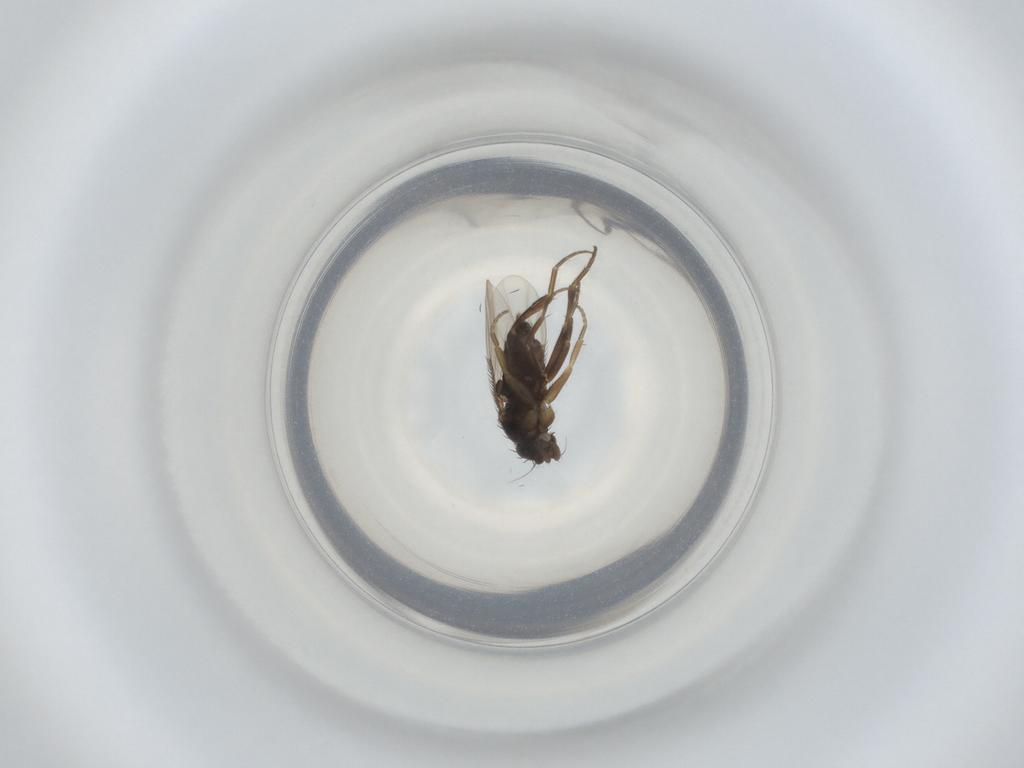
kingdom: Animalia
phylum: Arthropoda
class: Insecta
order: Diptera
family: Phoridae
